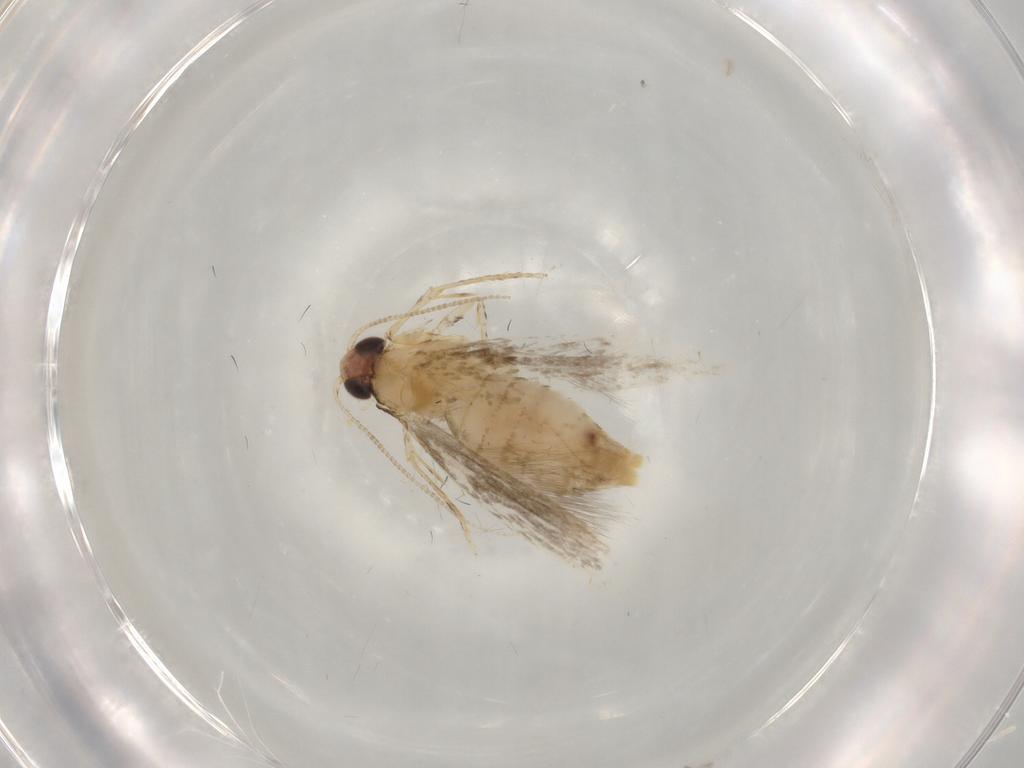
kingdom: Animalia
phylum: Arthropoda
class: Insecta
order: Lepidoptera
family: Tineidae
